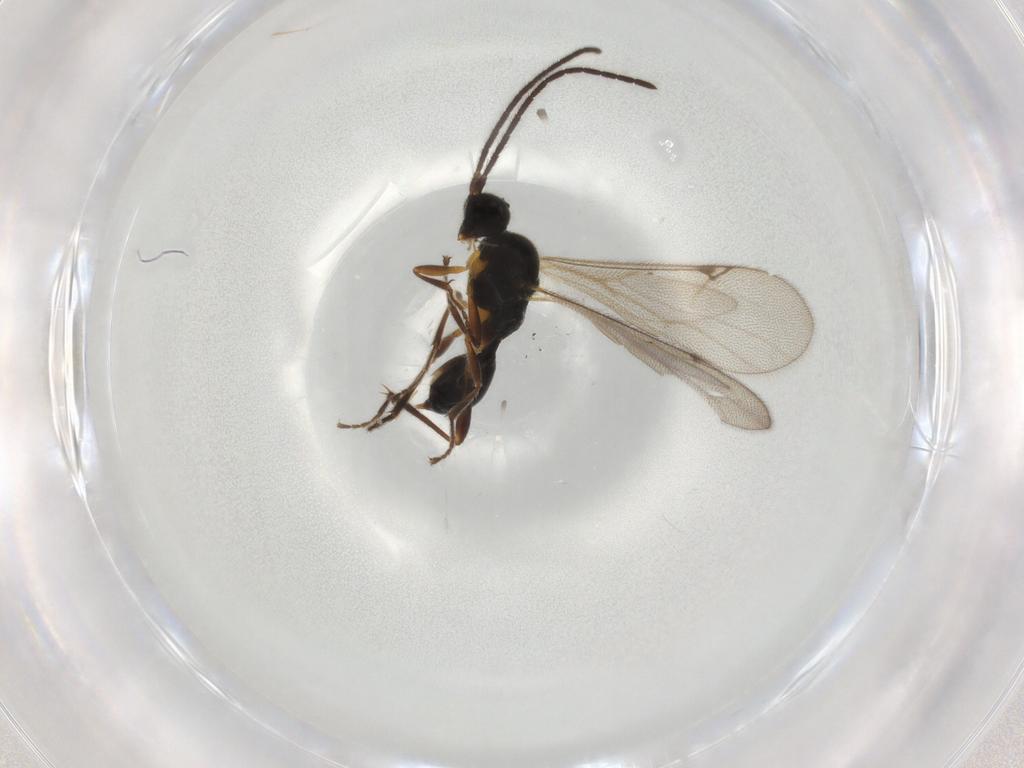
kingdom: Animalia
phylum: Arthropoda
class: Insecta
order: Hymenoptera
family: Proctotrupidae
